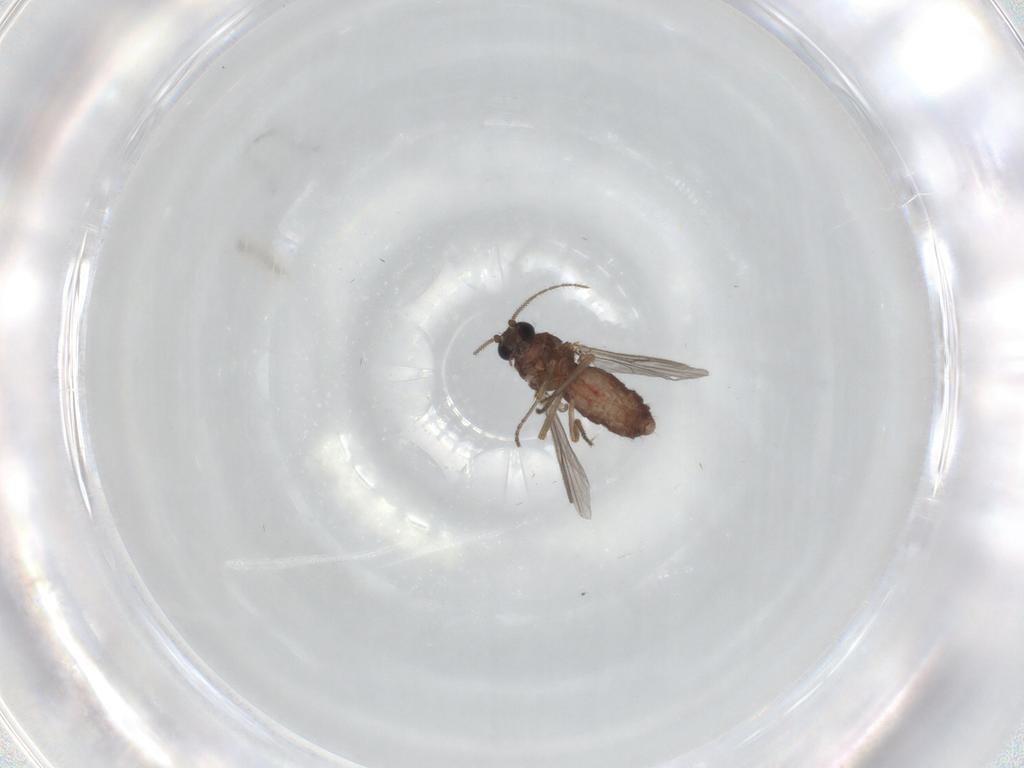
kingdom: Animalia
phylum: Arthropoda
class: Insecta
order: Diptera
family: Ceratopogonidae
